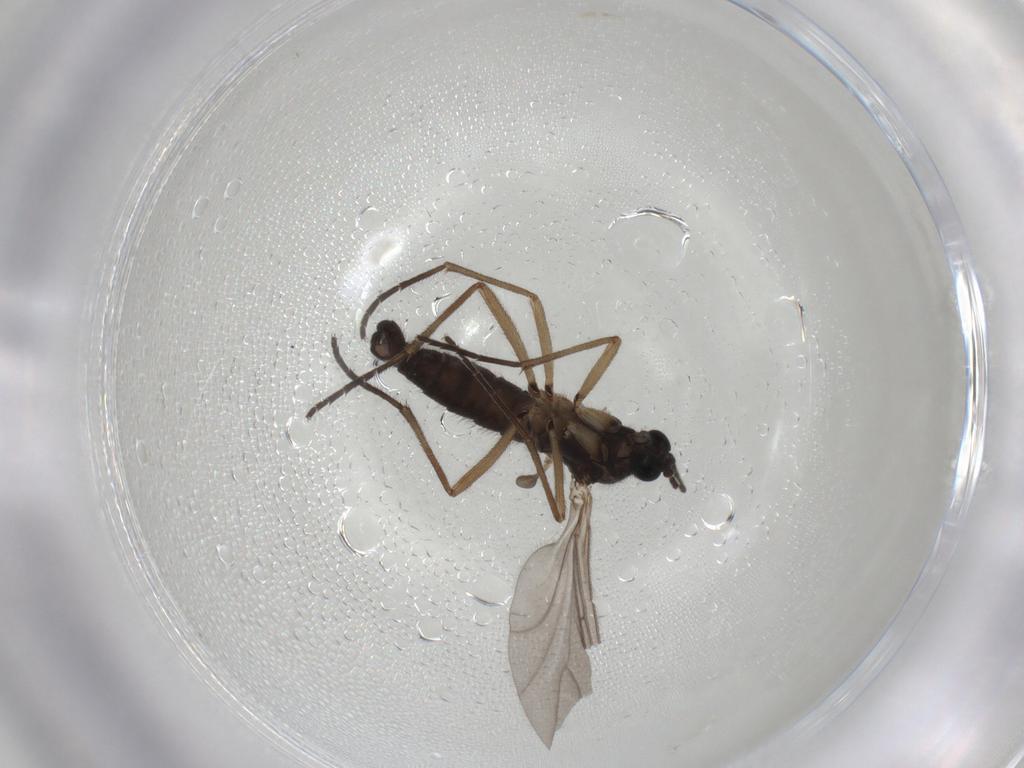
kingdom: Animalia
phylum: Arthropoda
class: Insecta
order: Diptera
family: Sciaridae
